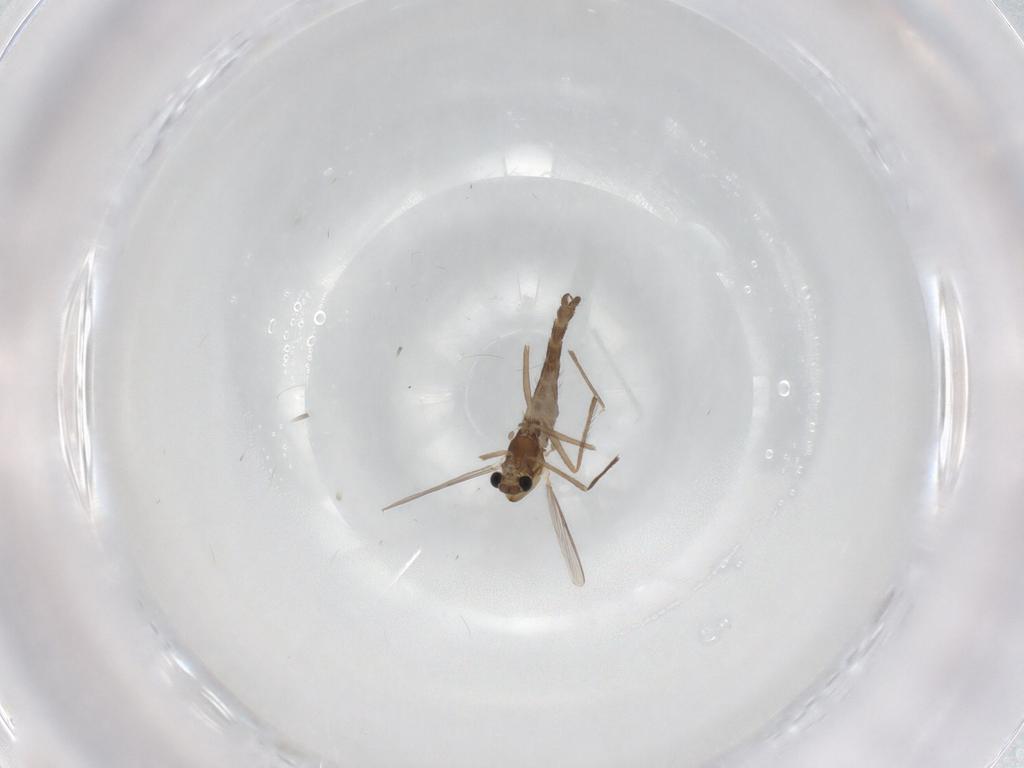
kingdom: Animalia
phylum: Arthropoda
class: Insecta
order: Diptera
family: Chironomidae
